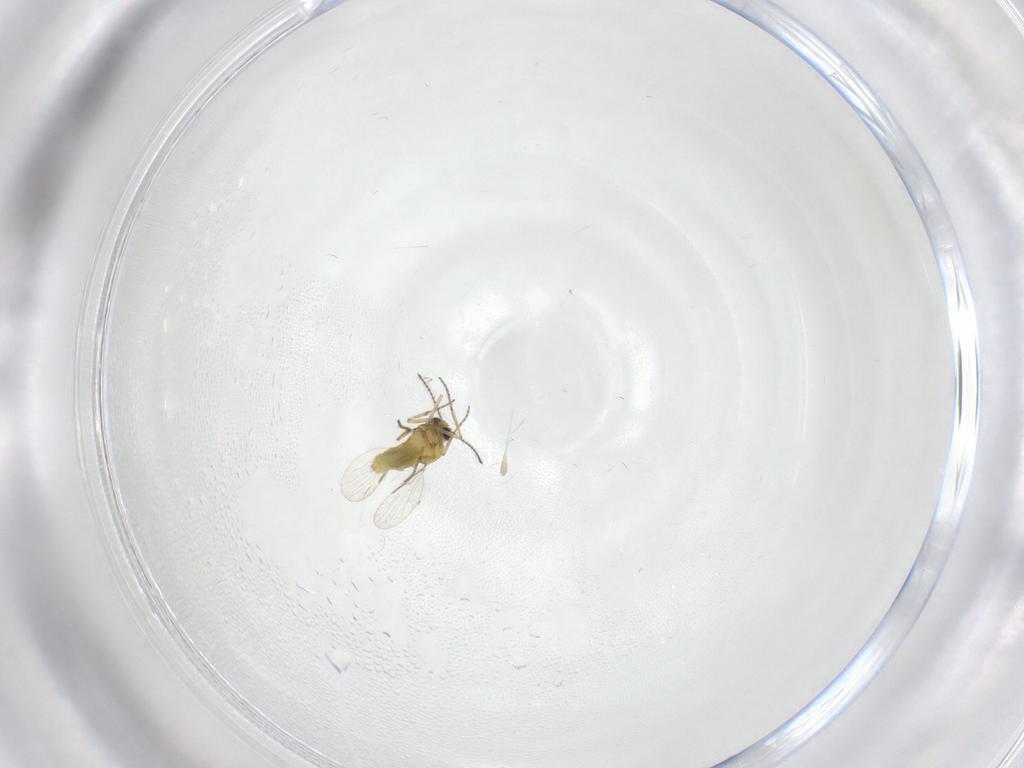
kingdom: Animalia
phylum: Arthropoda
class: Insecta
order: Diptera
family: Ceratopogonidae
